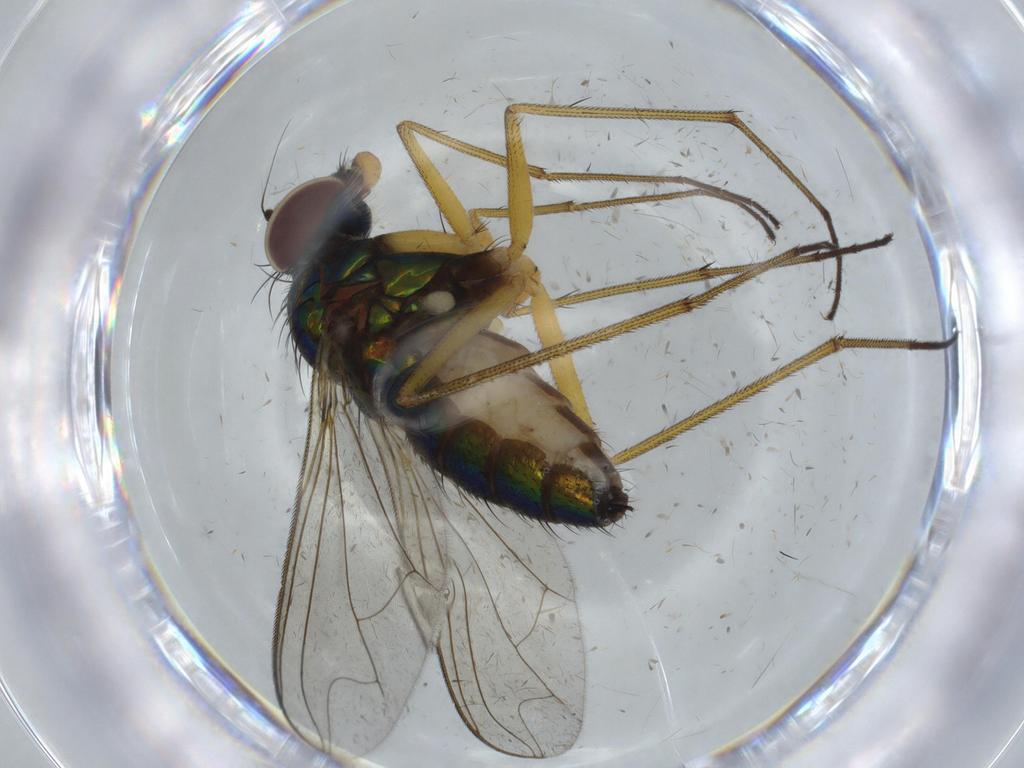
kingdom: Animalia
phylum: Arthropoda
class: Insecta
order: Diptera
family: Dolichopodidae
